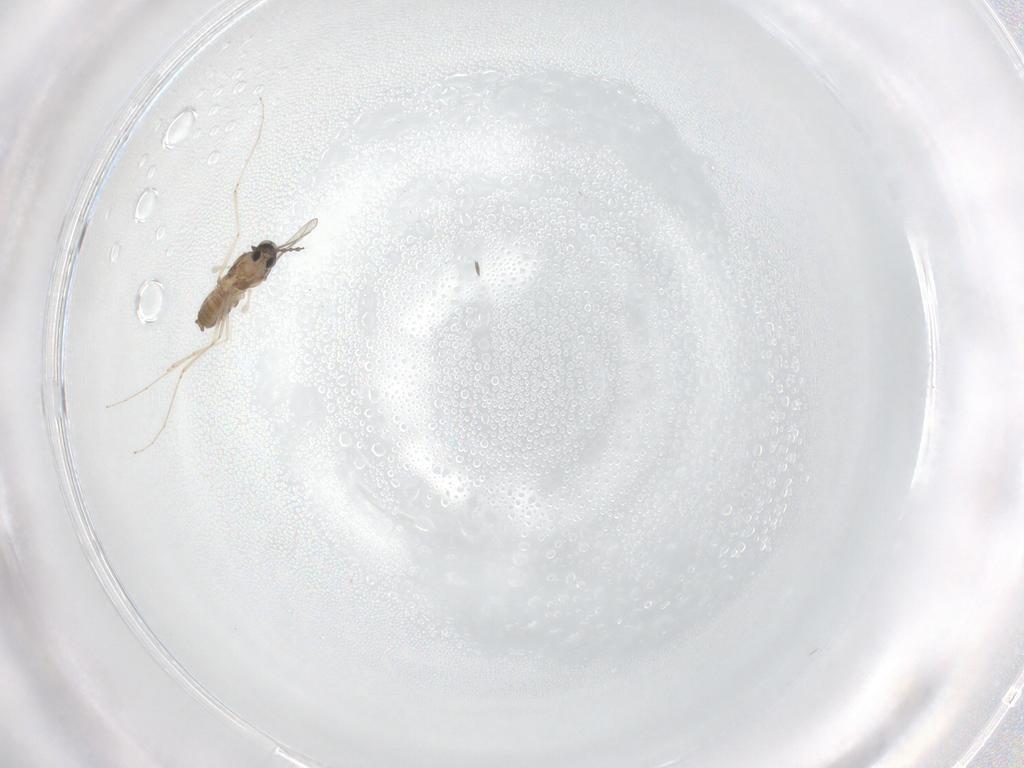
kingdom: Animalia
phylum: Arthropoda
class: Insecta
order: Diptera
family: Cecidomyiidae
